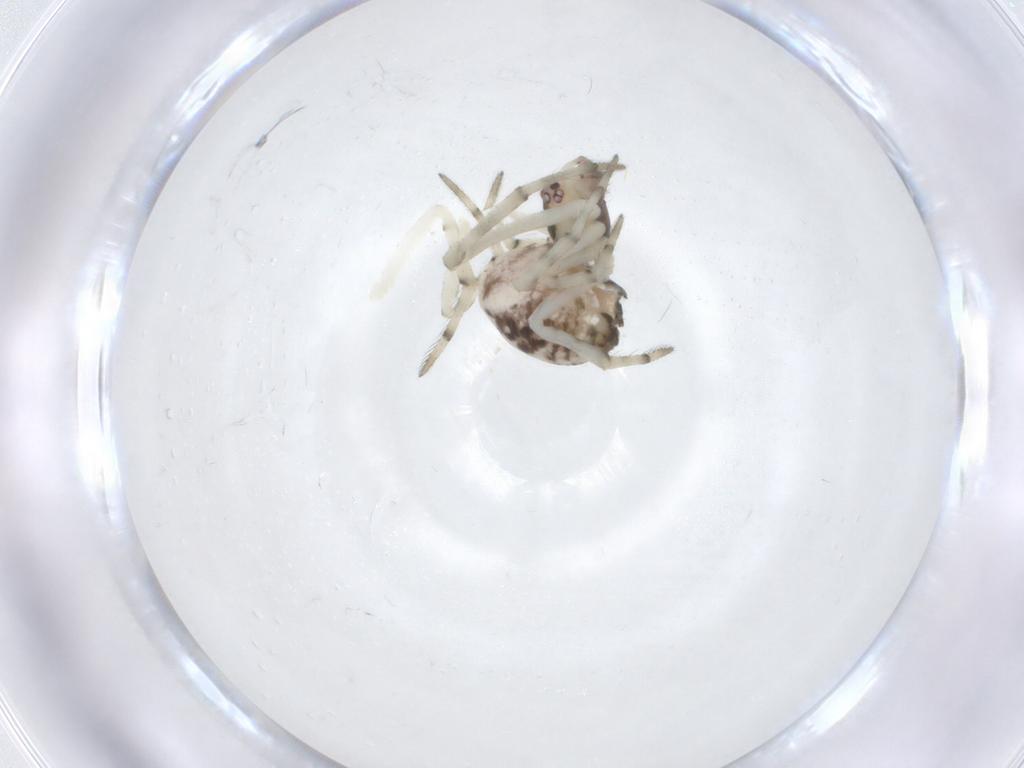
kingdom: Animalia
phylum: Arthropoda
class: Arachnida
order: Araneae
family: Theridiidae
